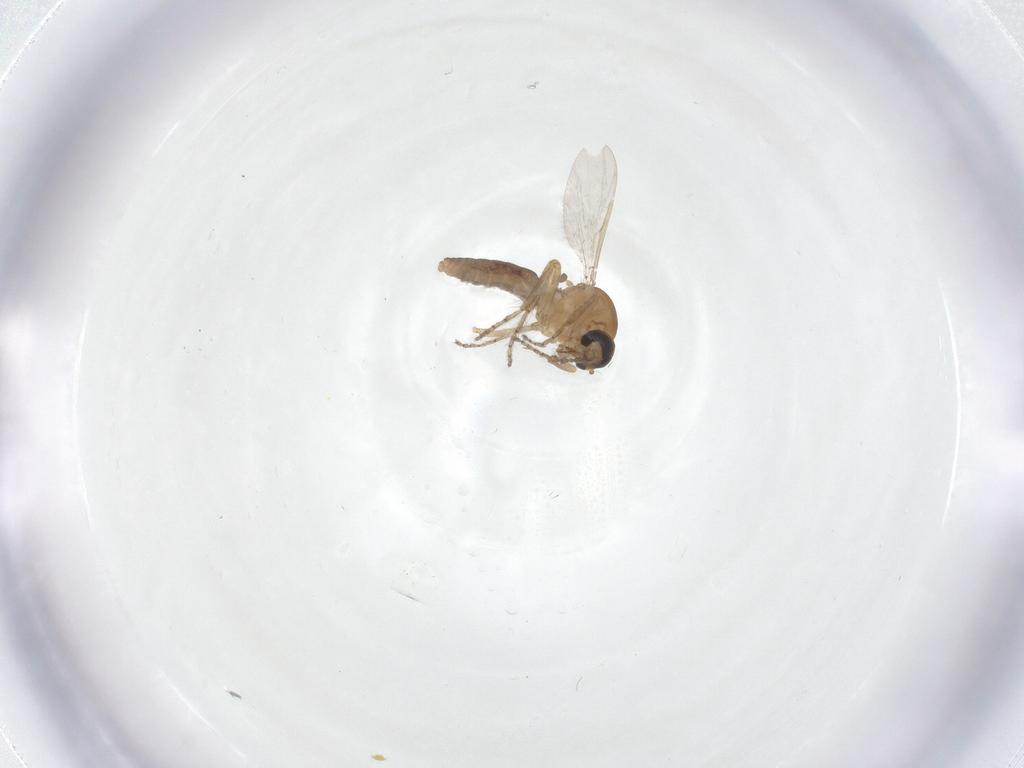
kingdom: Animalia
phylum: Arthropoda
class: Insecta
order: Diptera
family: Ceratopogonidae
